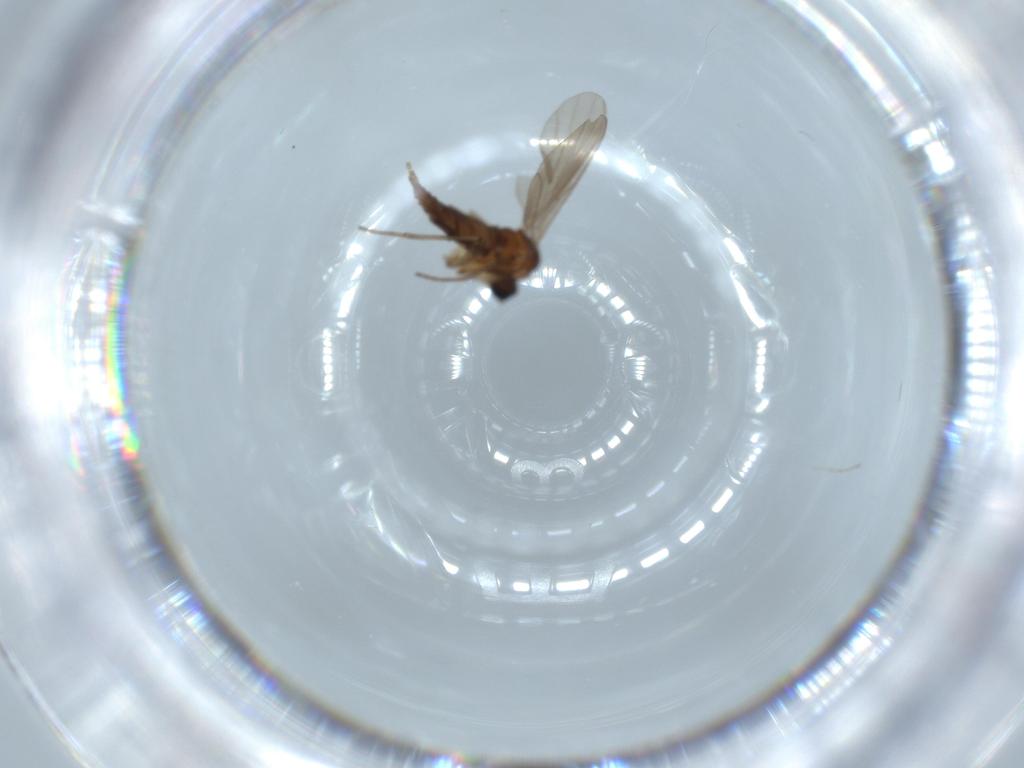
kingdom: Animalia
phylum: Arthropoda
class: Insecta
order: Diptera
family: Sciaridae
